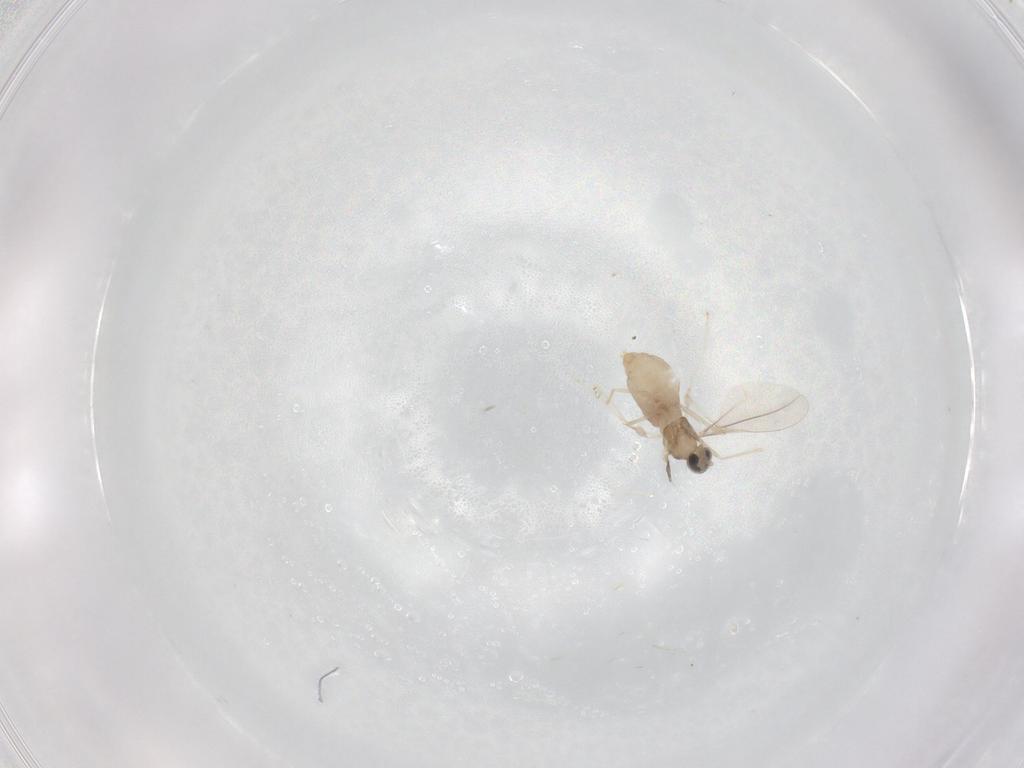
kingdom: Animalia
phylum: Arthropoda
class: Insecta
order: Diptera
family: Cecidomyiidae
